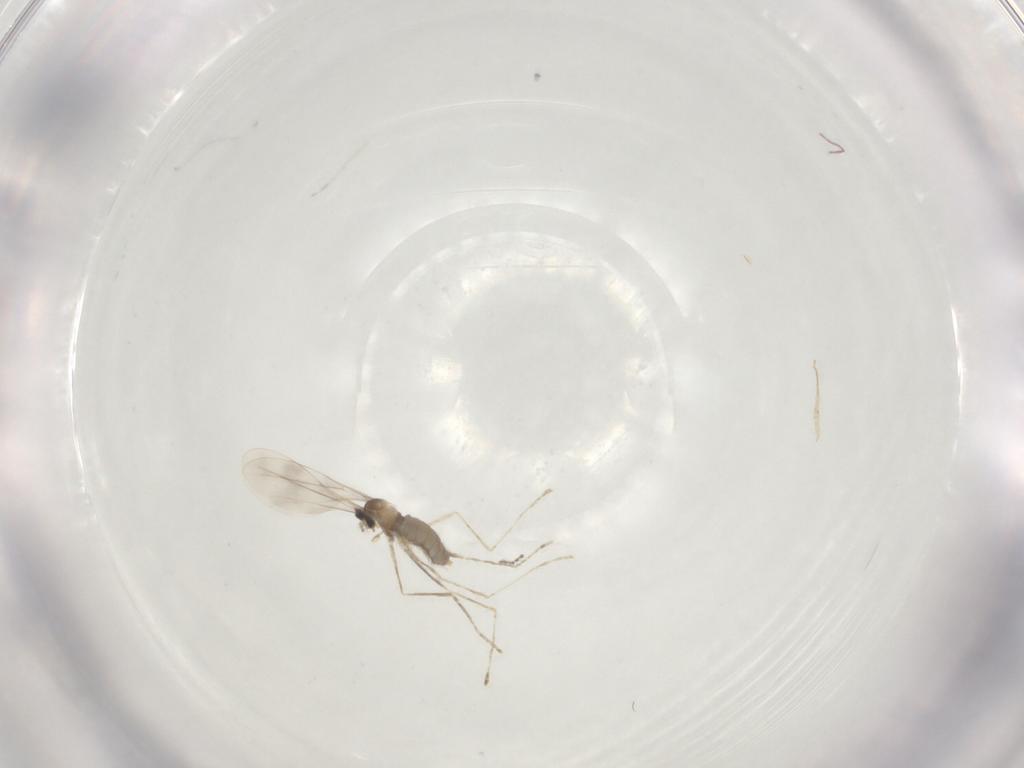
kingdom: Animalia
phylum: Arthropoda
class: Insecta
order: Diptera
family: Cecidomyiidae
